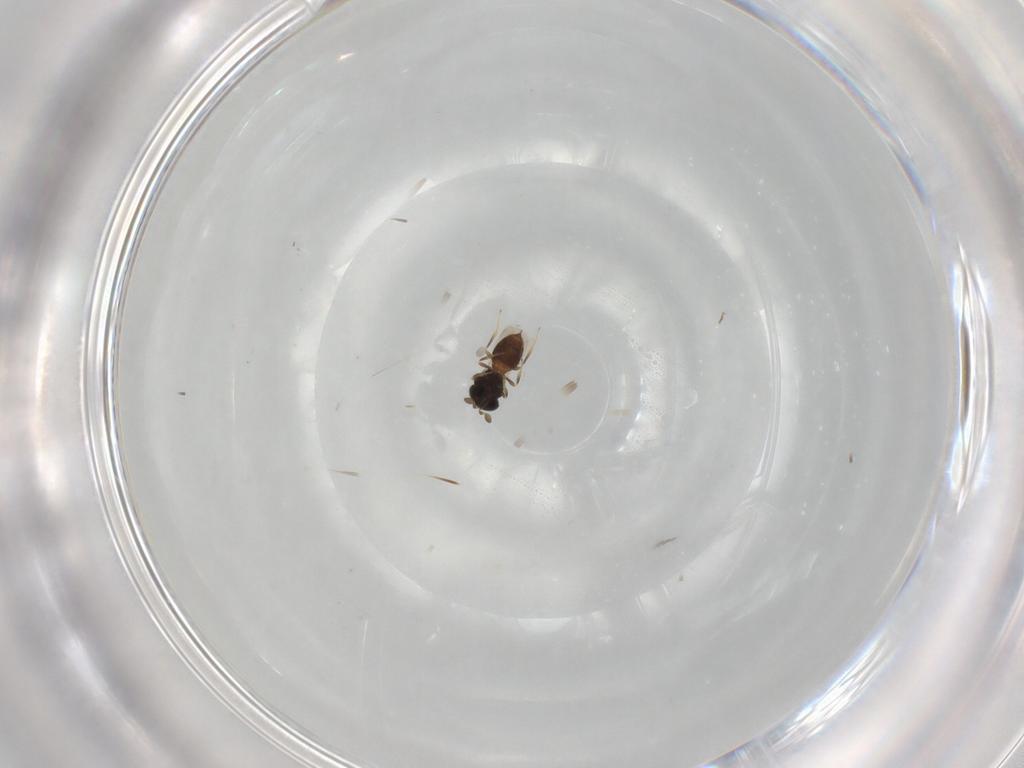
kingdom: Animalia
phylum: Arthropoda
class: Insecta
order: Hymenoptera
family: Scelionidae
